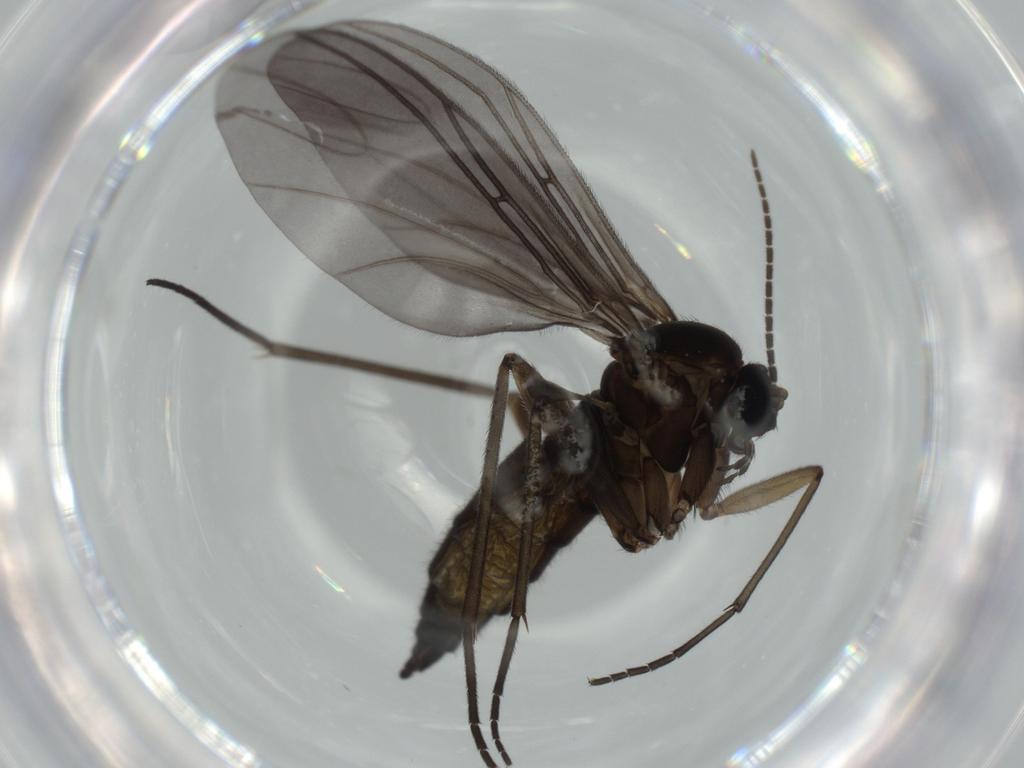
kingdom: Animalia
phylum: Arthropoda
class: Insecta
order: Diptera
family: Sciaridae
